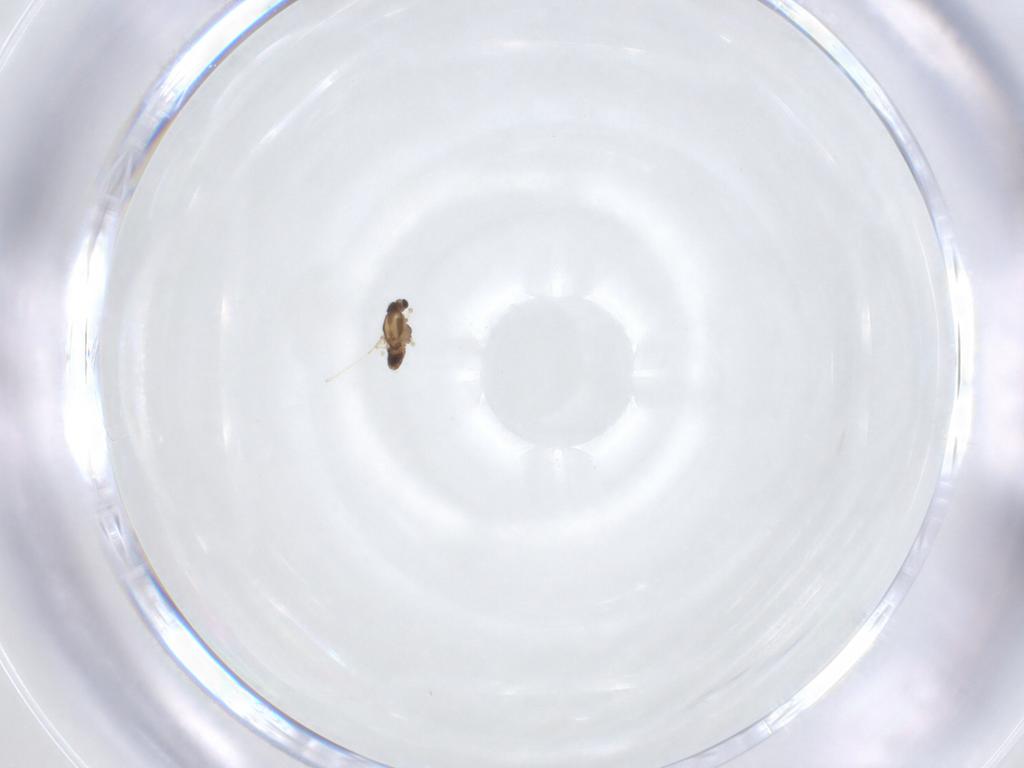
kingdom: Animalia
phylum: Arthropoda
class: Insecta
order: Diptera
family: Chironomidae
